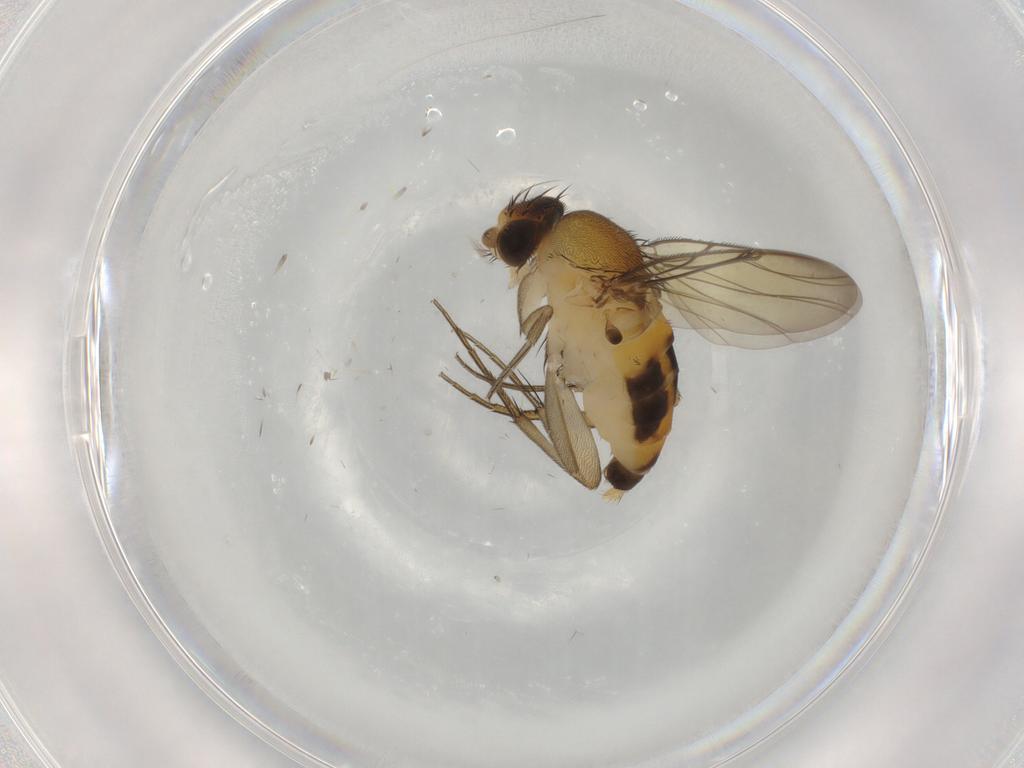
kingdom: Animalia
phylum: Arthropoda
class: Insecta
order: Diptera
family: Phoridae
